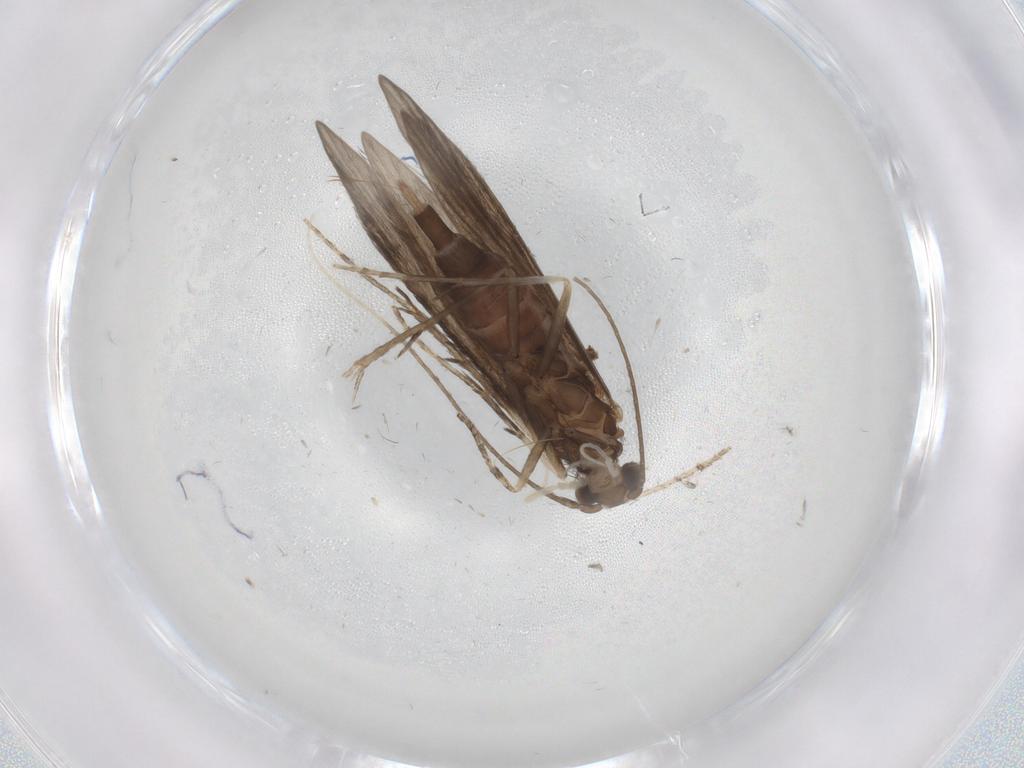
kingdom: Animalia
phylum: Arthropoda
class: Insecta
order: Trichoptera
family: Xiphocentronidae
